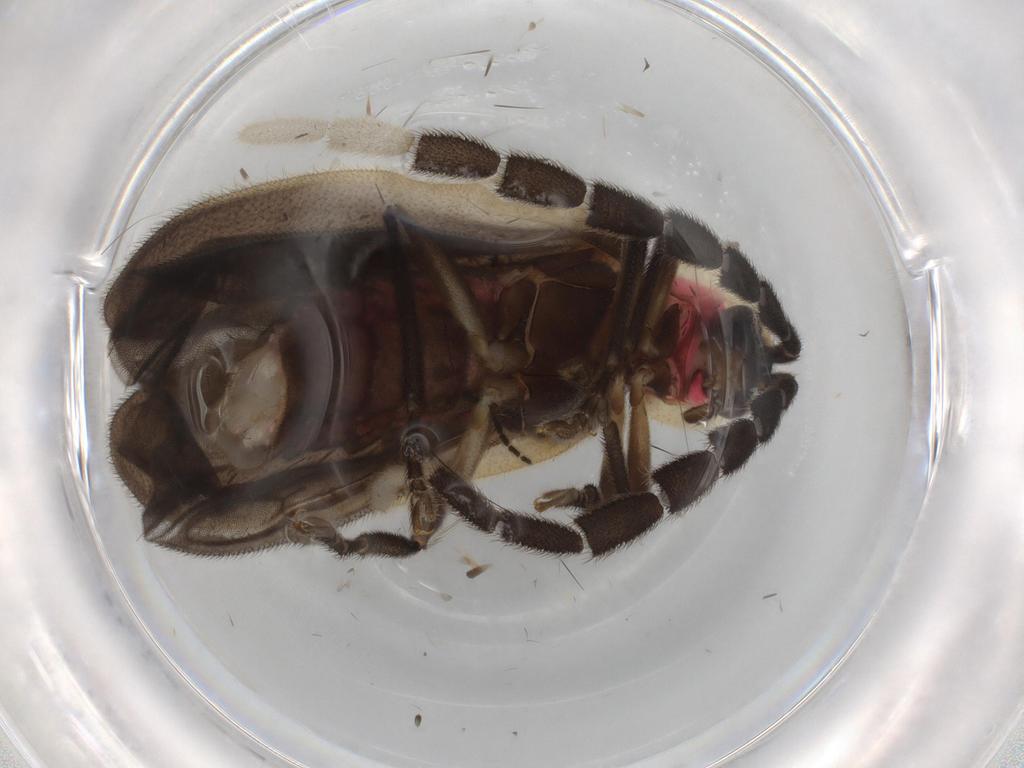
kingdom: Animalia
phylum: Arthropoda
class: Insecta
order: Coleoptera
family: Lampyridae
